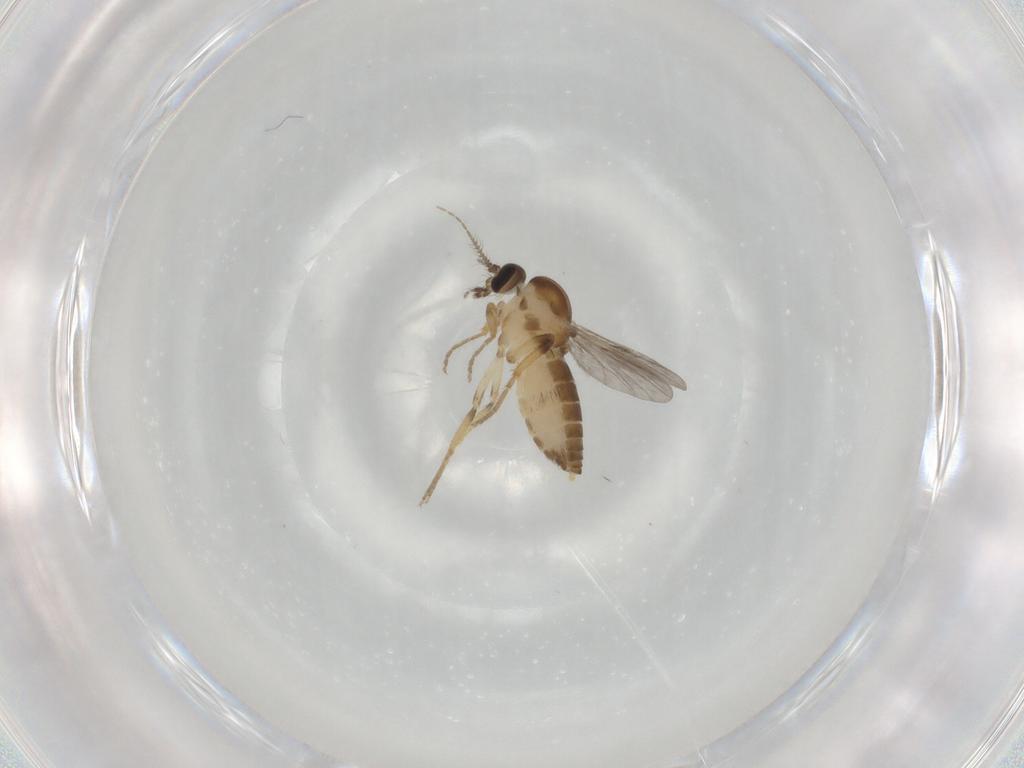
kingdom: Animalia
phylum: Arthropoda
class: Insecta
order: Diptera
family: Ceratopogonidae
